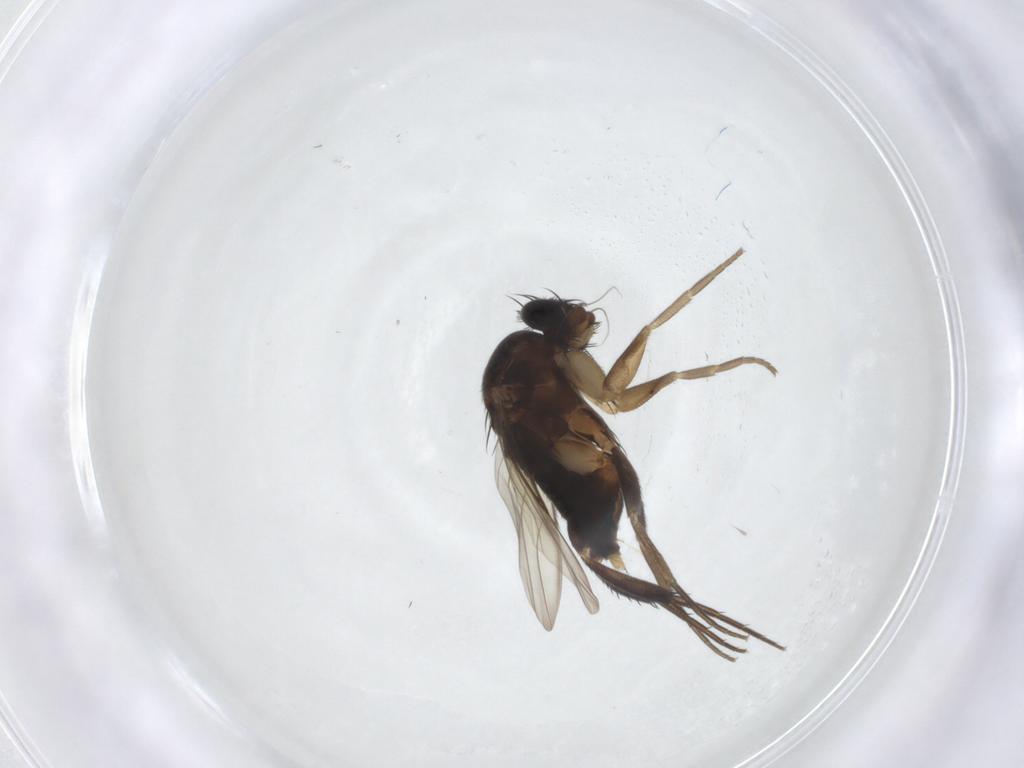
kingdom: Animalia
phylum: Arthropoda
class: Insecta
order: Diptera
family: Phoridae
